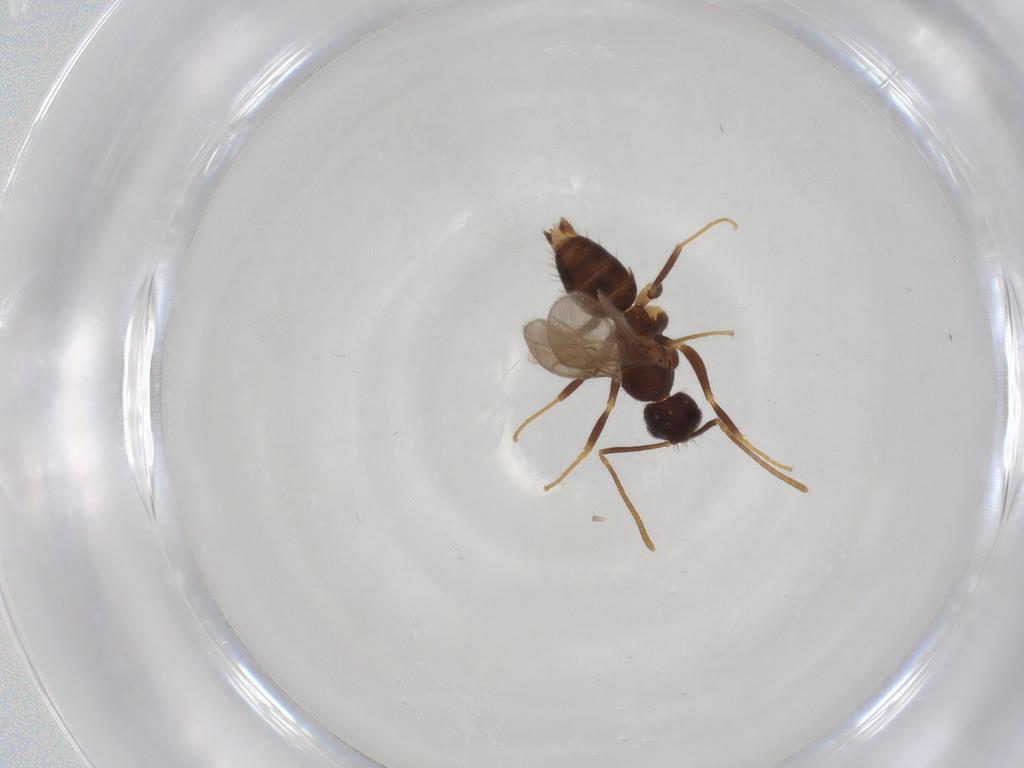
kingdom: Animalia
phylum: Arthropoda
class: Insecta
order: Hymenoptera
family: Formicidae
